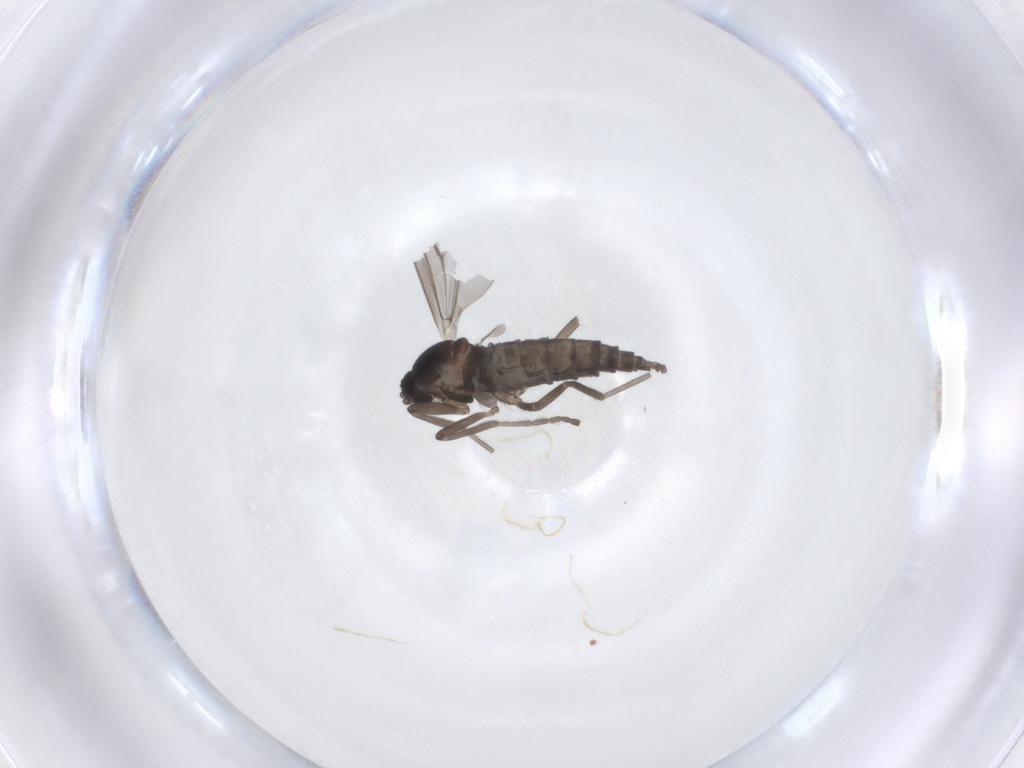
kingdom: Animalia
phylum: Arthropoda
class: Insecta
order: Diptera
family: Cecidomyiidae
